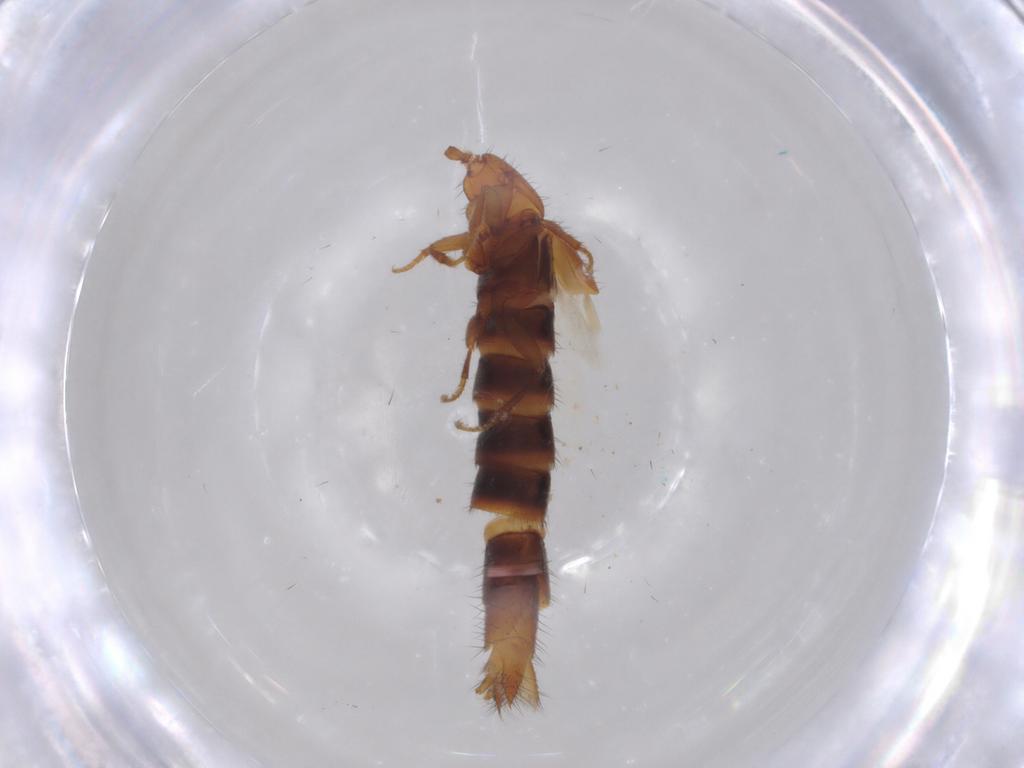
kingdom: Animalia
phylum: Arthropoda
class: Insecta
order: Coleoptera
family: Staphylinidae
